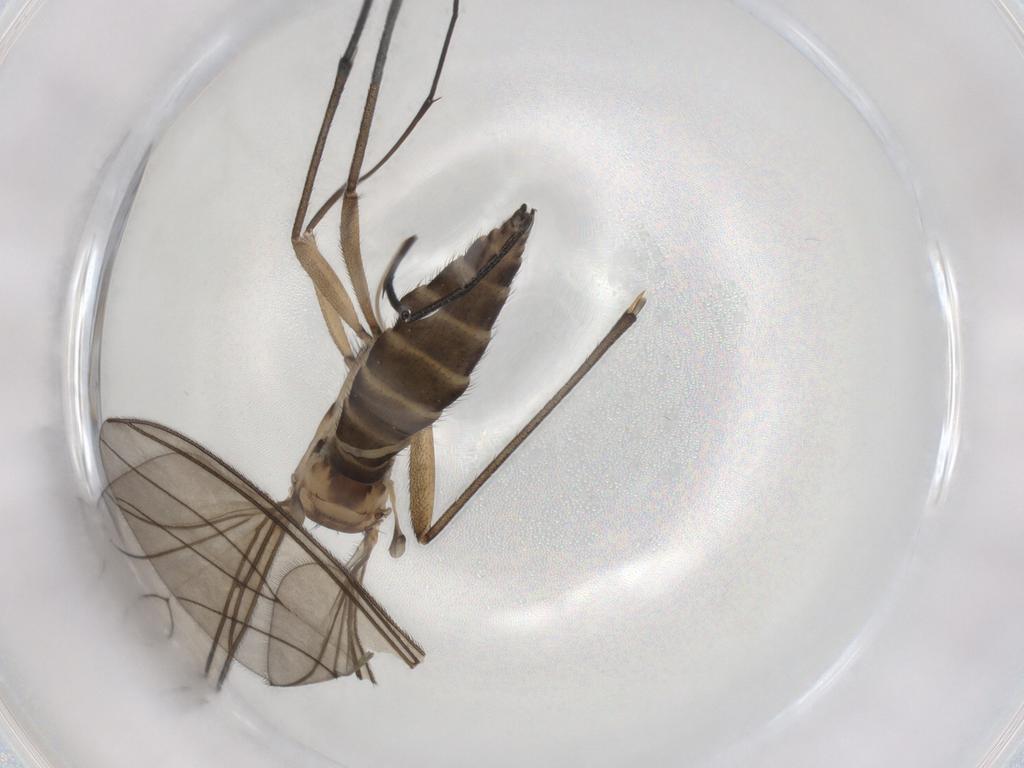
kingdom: Animalia
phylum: Arthropoda
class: Insecta
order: Diptera
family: Sciaridae
